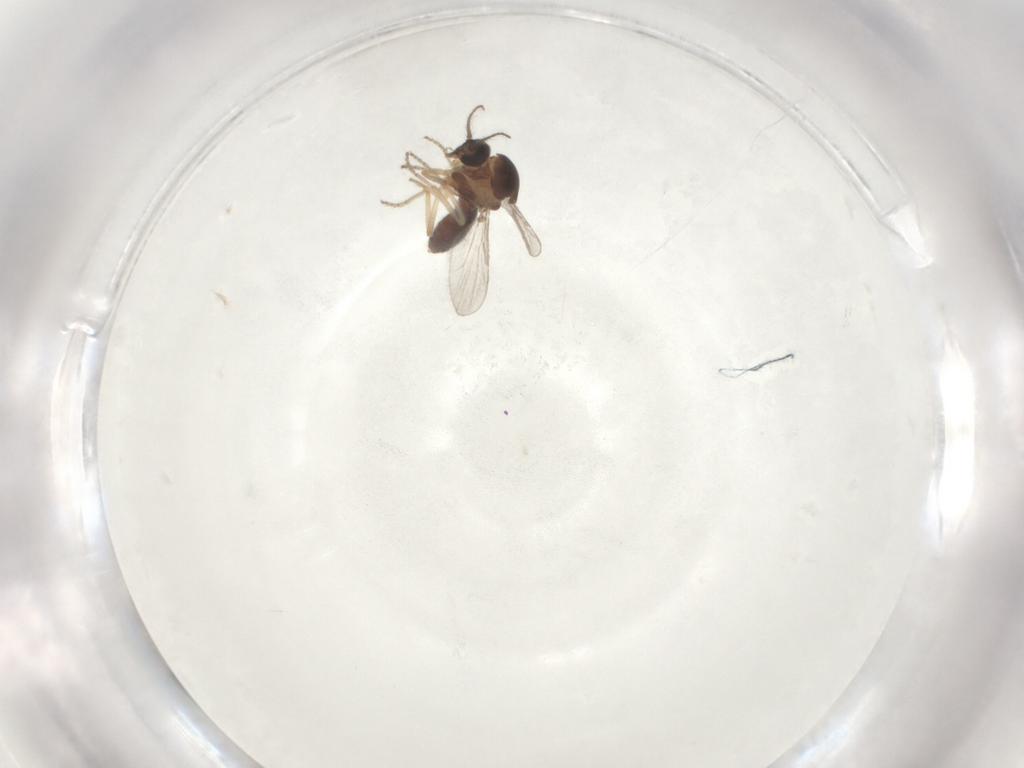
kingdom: Animalia
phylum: Arthropoda
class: Insecta
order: Diptera
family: Ceratopogonidae
